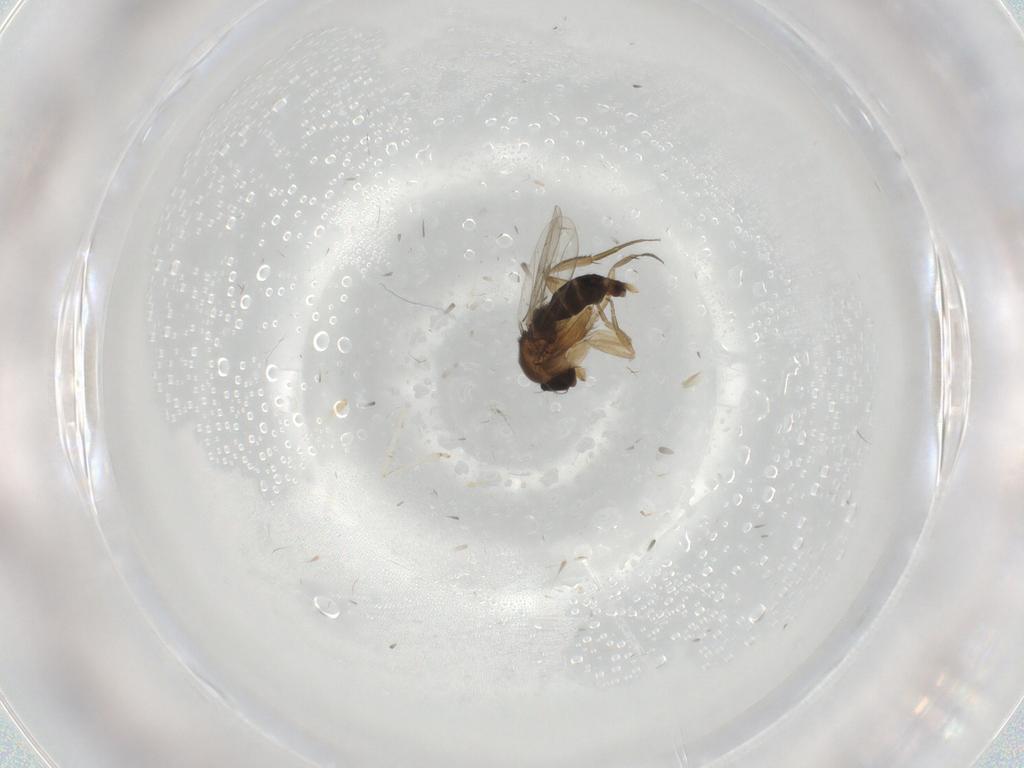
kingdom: Animalia
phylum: Arthropoda
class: Insecta
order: Diptera
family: Phoridae
